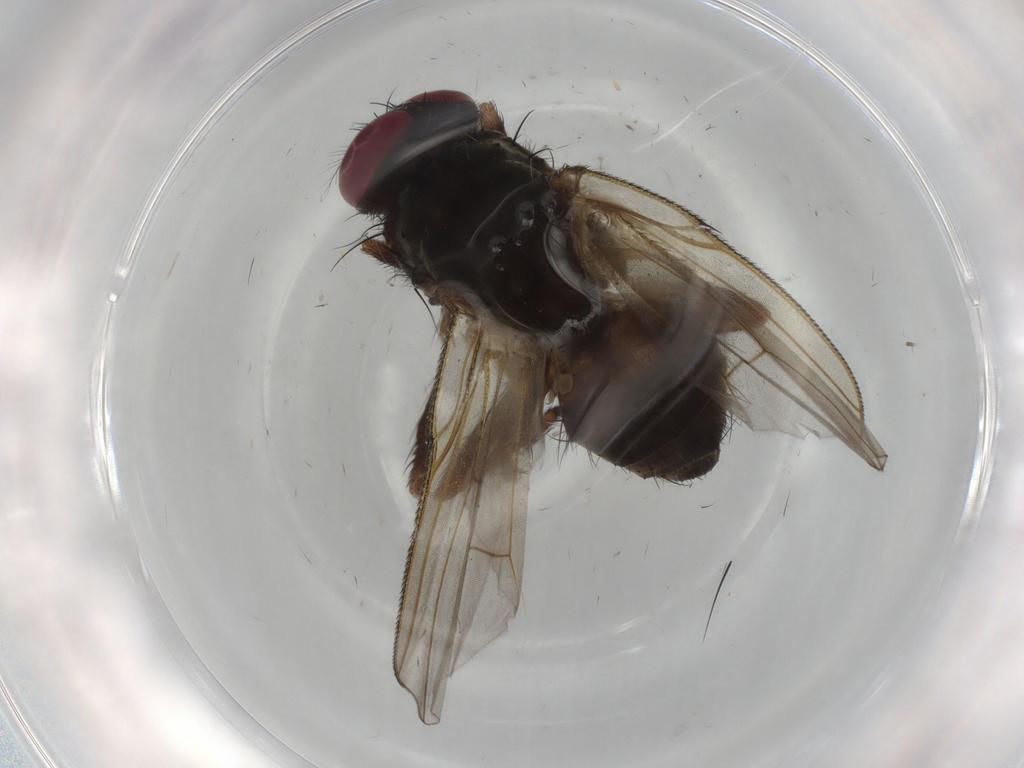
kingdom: Animalia
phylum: Arthropoda
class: Insecta
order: Diptera
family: Muscidae
